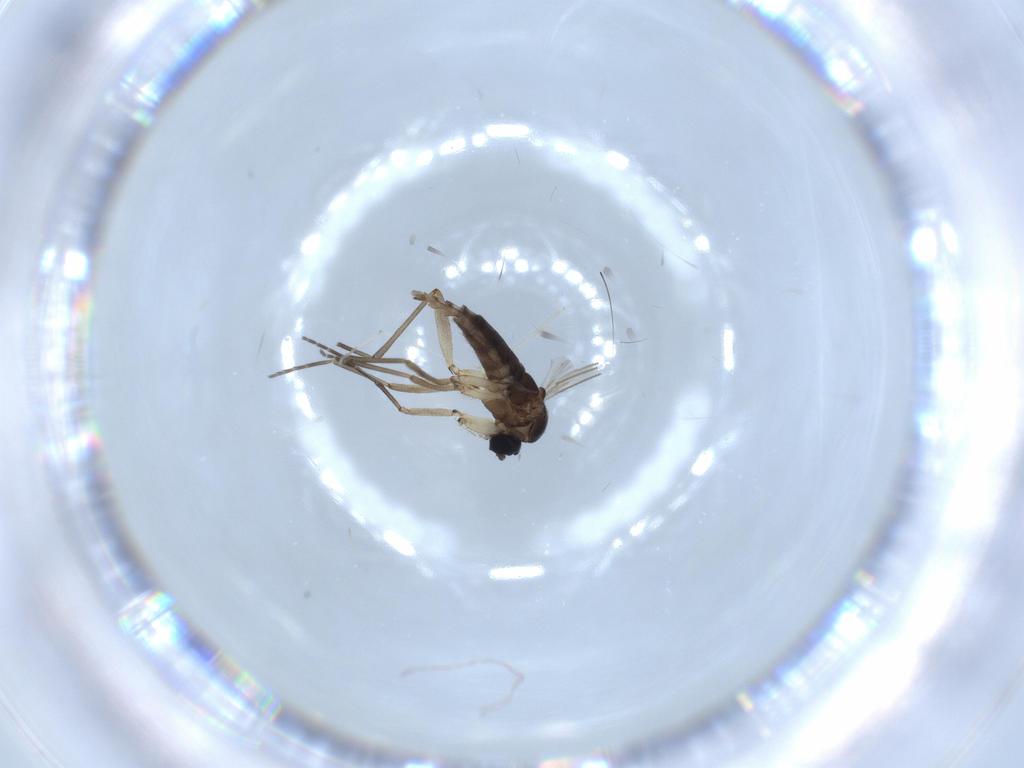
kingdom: Animalia
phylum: Arthropoda
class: Insecta
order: Diptera
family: Sciaridae
